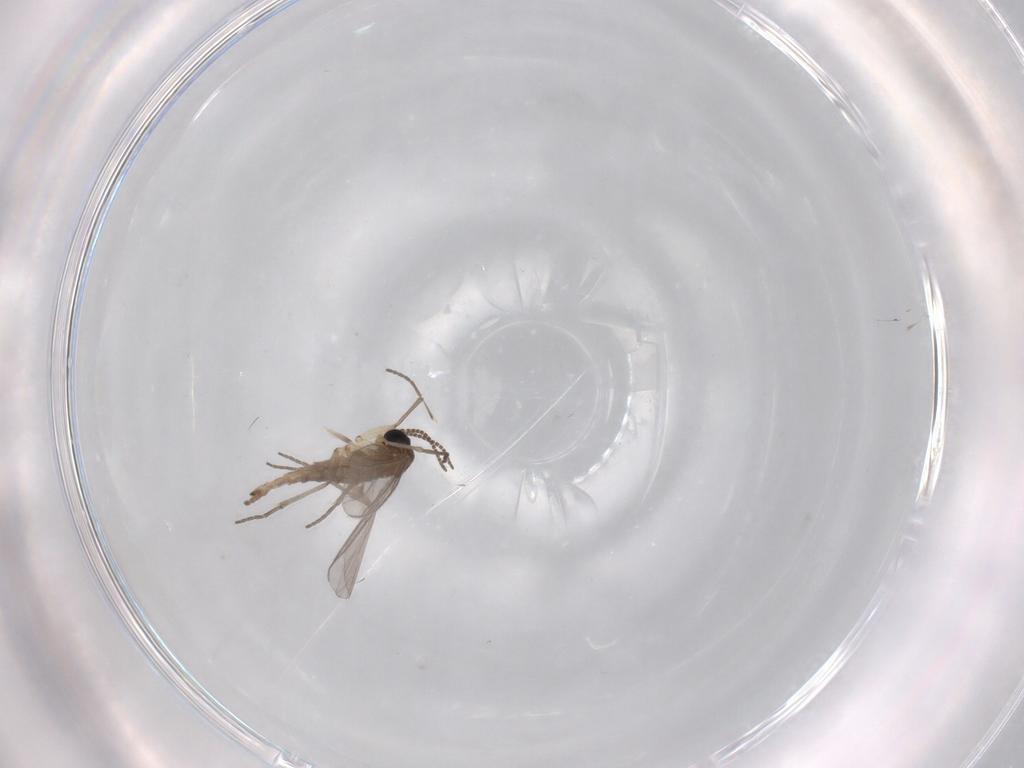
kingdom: Animalia
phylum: Arthropoda
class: Insecta
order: Diptera
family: Sciaridae
